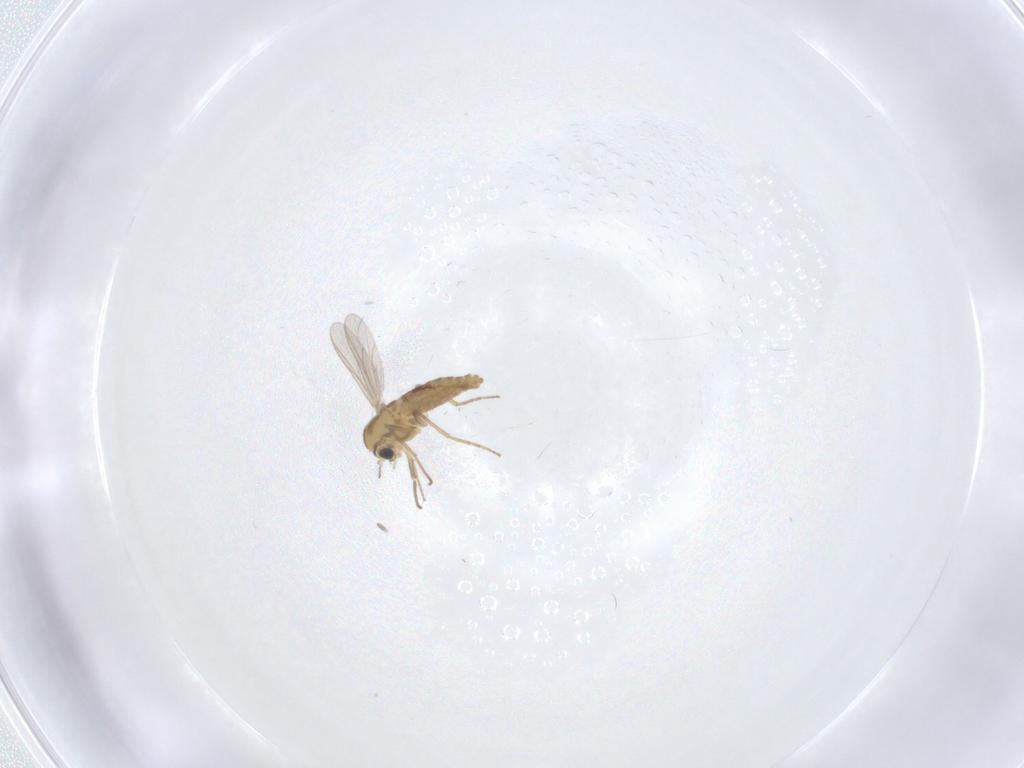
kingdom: Animalia
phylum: Arthropoda
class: Insecta
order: Diptera
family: Chironomidae
